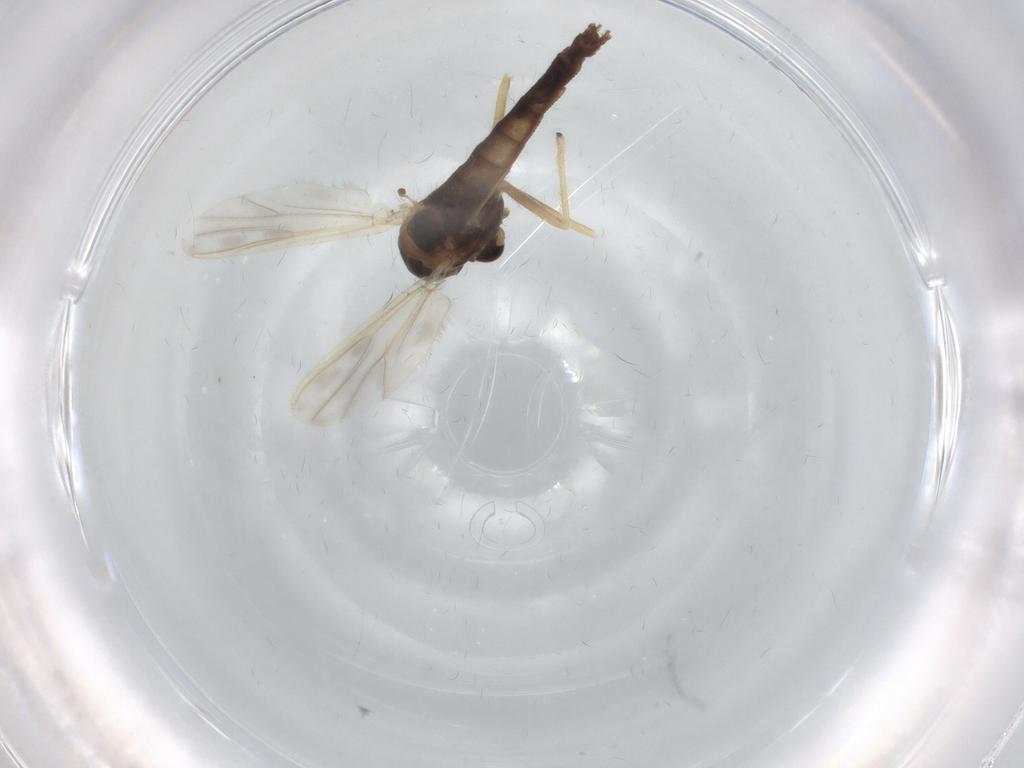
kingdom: Animalia
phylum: Arthropoda
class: Insecta
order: Diptera
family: Chironomidae
